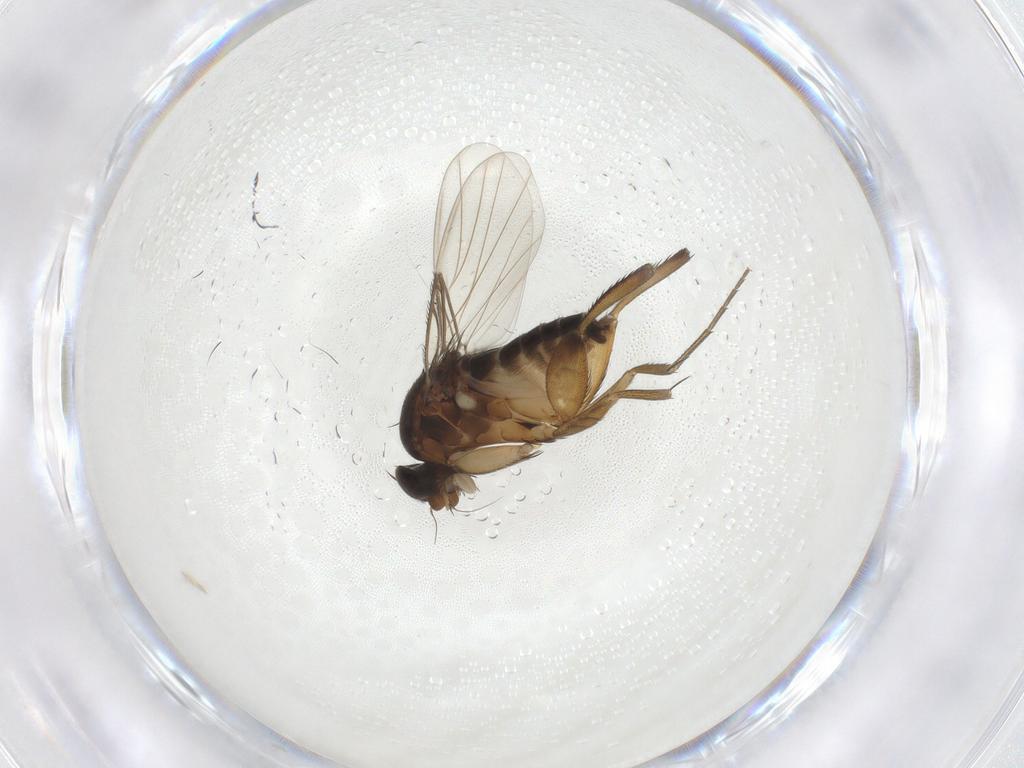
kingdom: Animalia
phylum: Arthropoda
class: Insecta
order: Diptera
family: Phoridae
